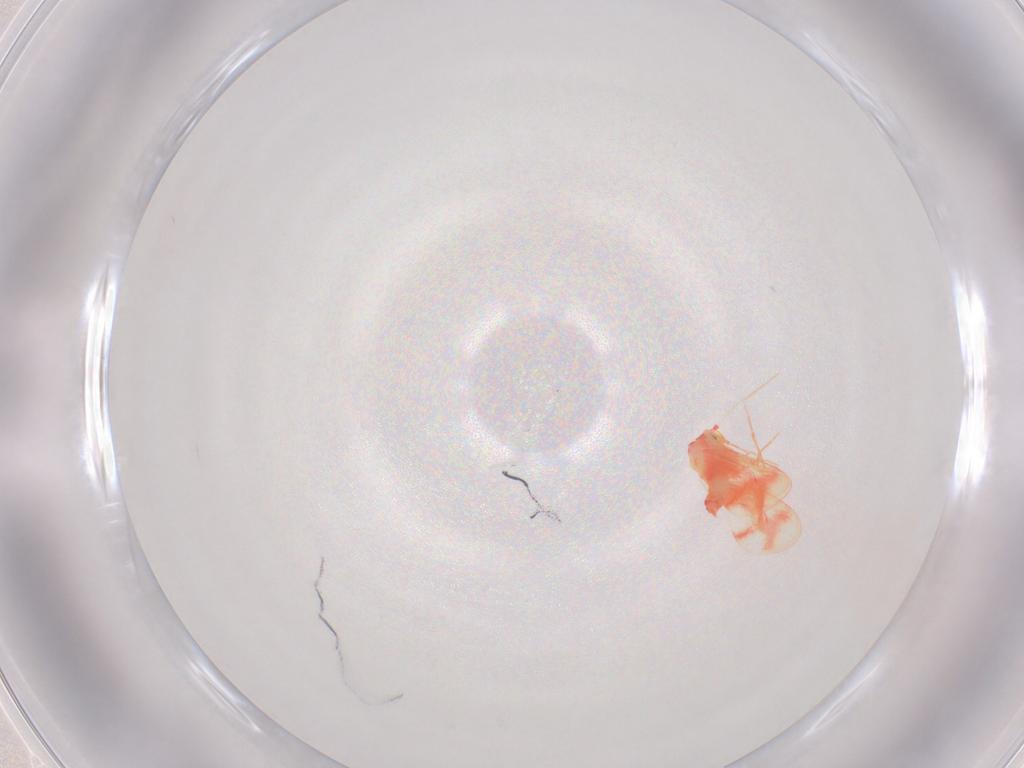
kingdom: Animalia
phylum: Arthropoda
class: Insecta
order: Hemiptera
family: Aleyrodidae
